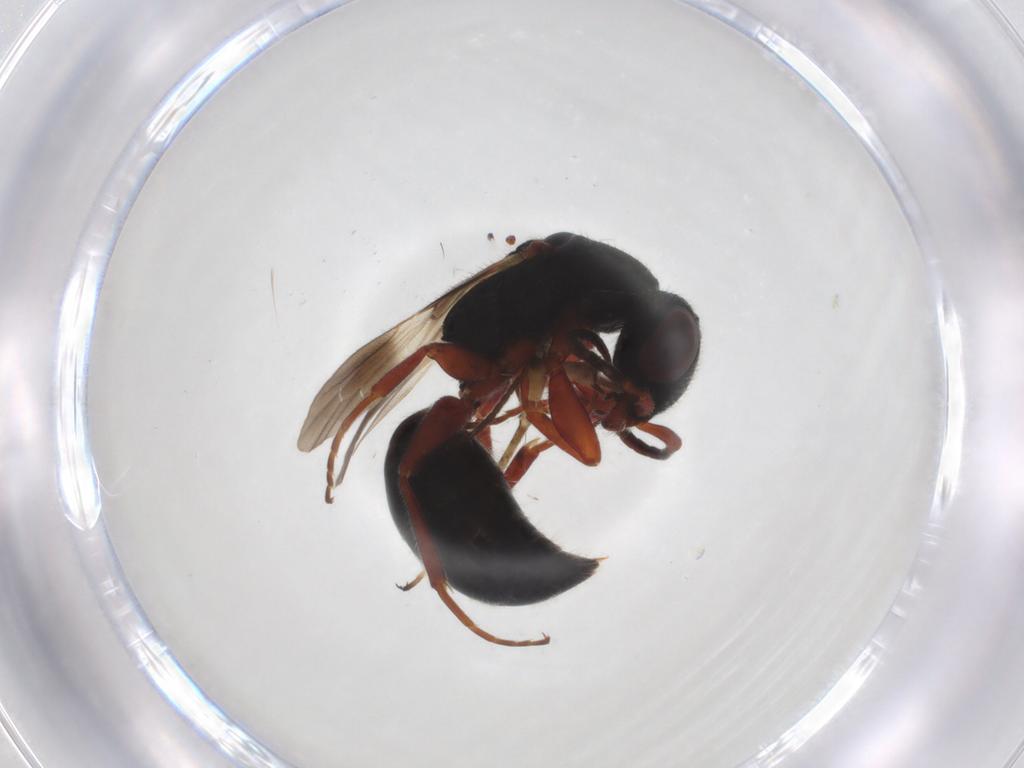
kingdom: Animalia
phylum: Arthropoda
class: Insecta
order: Hymenoptera
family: Bethylidae
